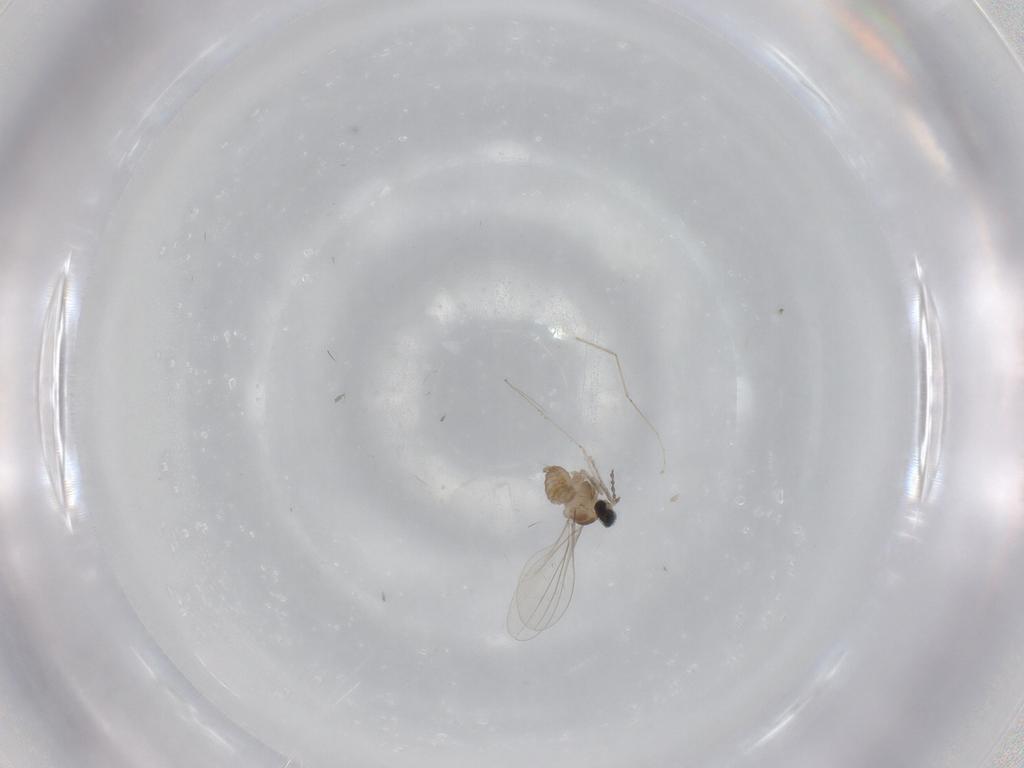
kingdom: Animalia
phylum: Arthropoda
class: Insecta
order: Diptera
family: Cecidomyiidae
